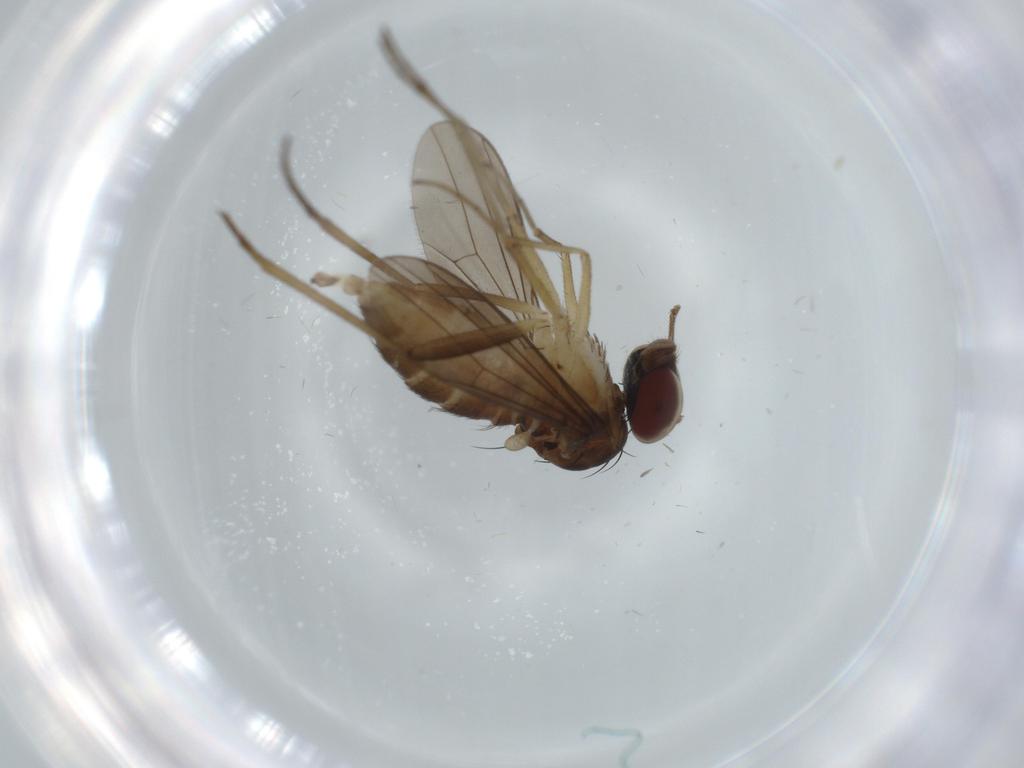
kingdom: Animalia
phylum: Arthropoda
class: Insecta
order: Diptera
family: Dolichopodidae
